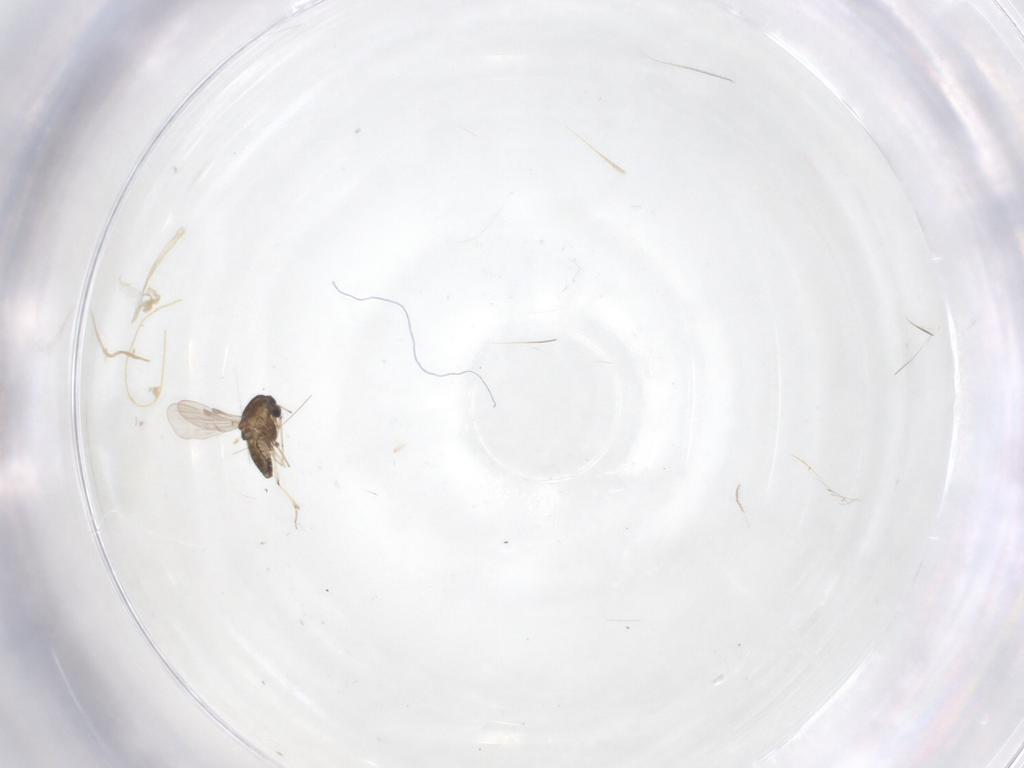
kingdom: Animalia
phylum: Arthropoda
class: Insecta
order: Diptera
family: Chironomidae
